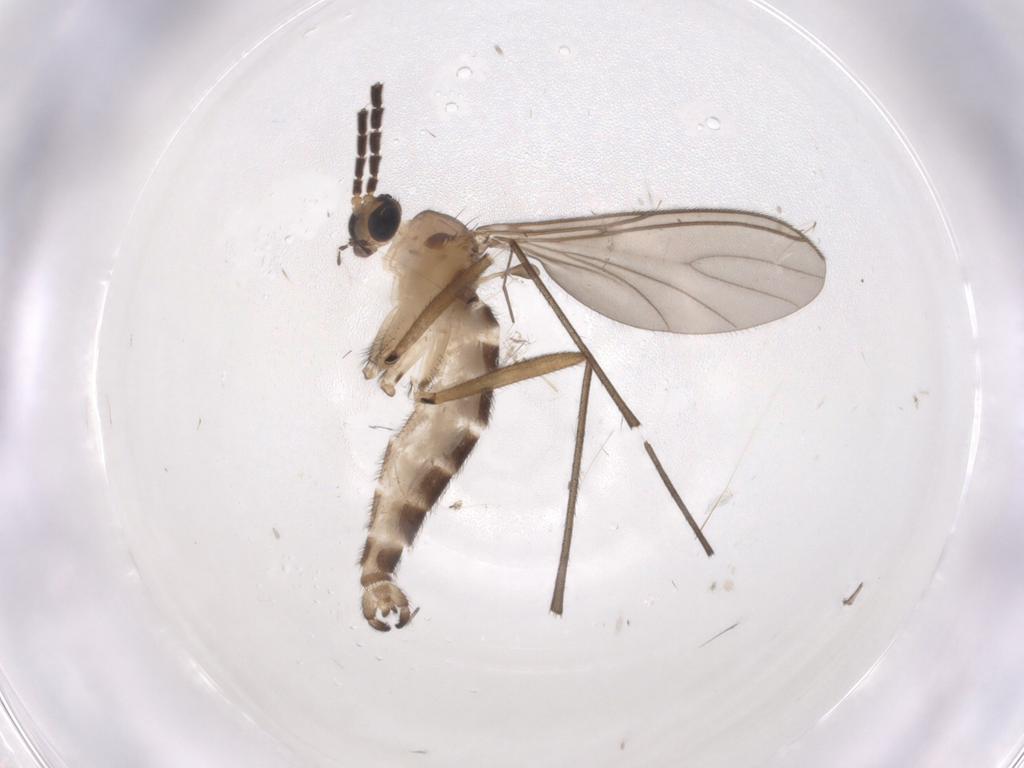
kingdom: Animalia
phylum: Arthropoda
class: Insecta
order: Diptera
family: Sciaridae
